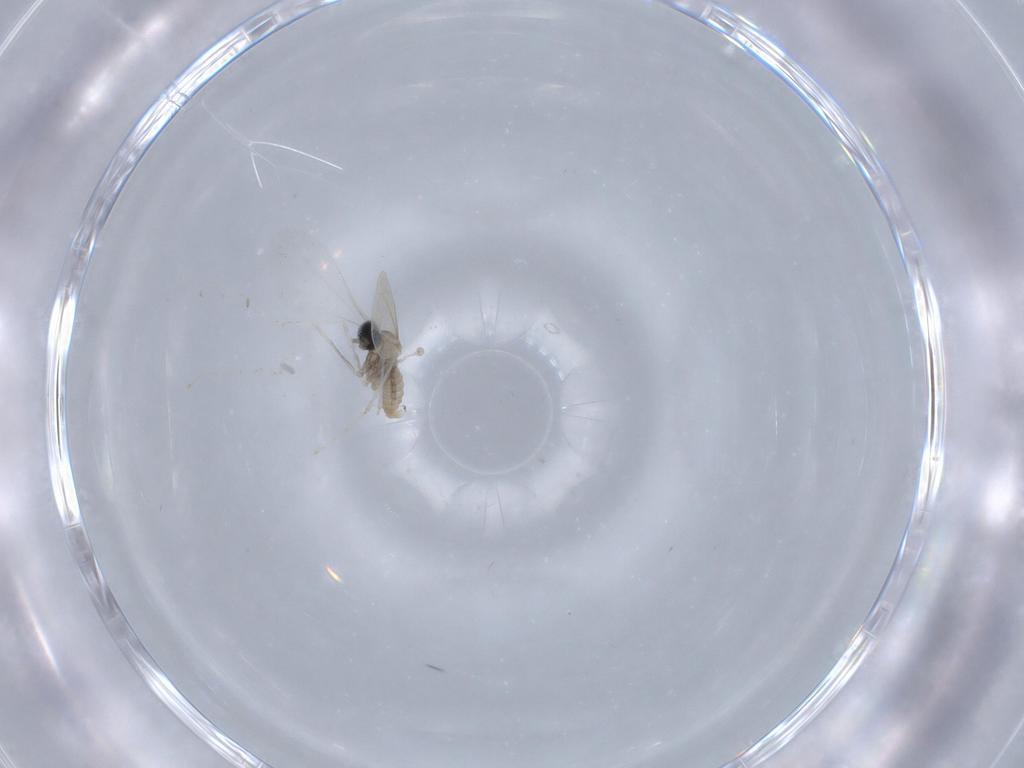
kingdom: Animalia
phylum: Arthropoda
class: Insecta
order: Diptera
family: Cecidomyiidae
